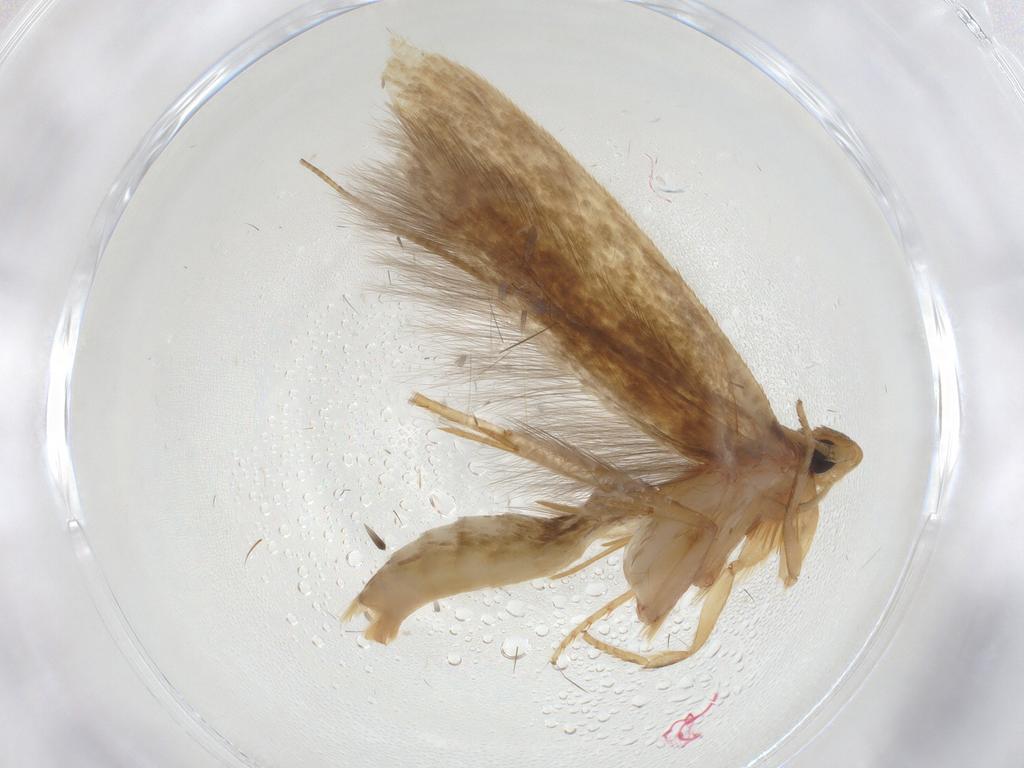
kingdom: Animalia
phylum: Arthropoda
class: Insecta
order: Lepidoptera
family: Tineidae
